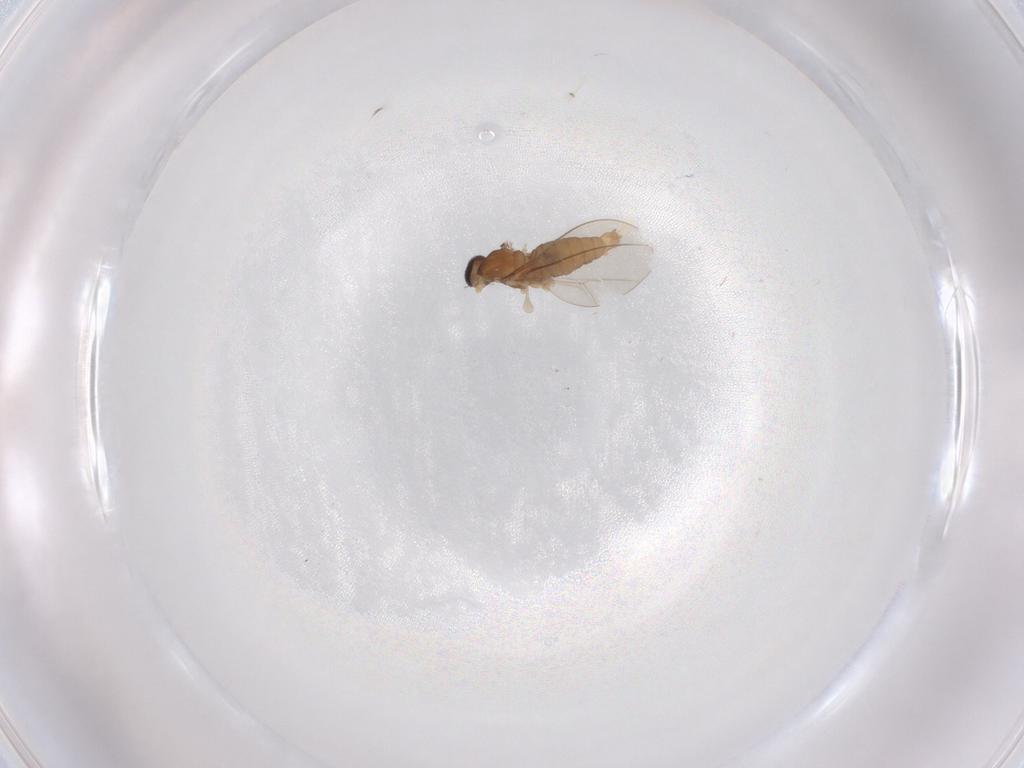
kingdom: Animalia
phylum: Arthropoda
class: Insecta
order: Diptera
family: Cecidomyiidae
